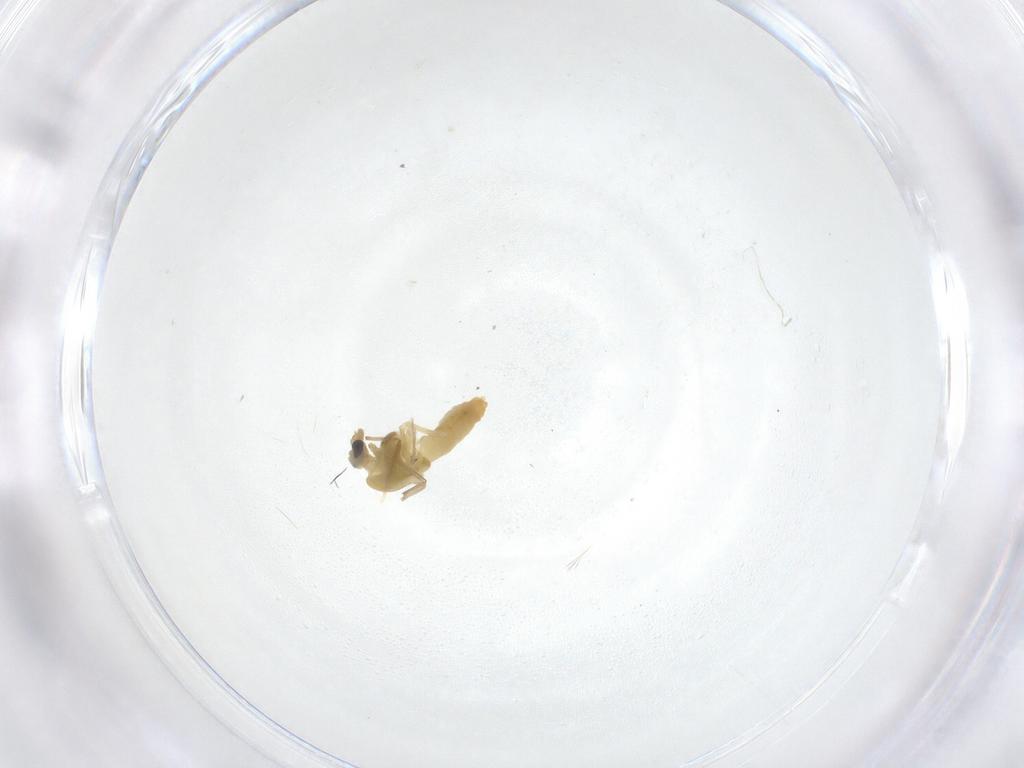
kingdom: Animalia
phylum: Arthropoda
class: Insecta
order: Diptera
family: Chironomidae
